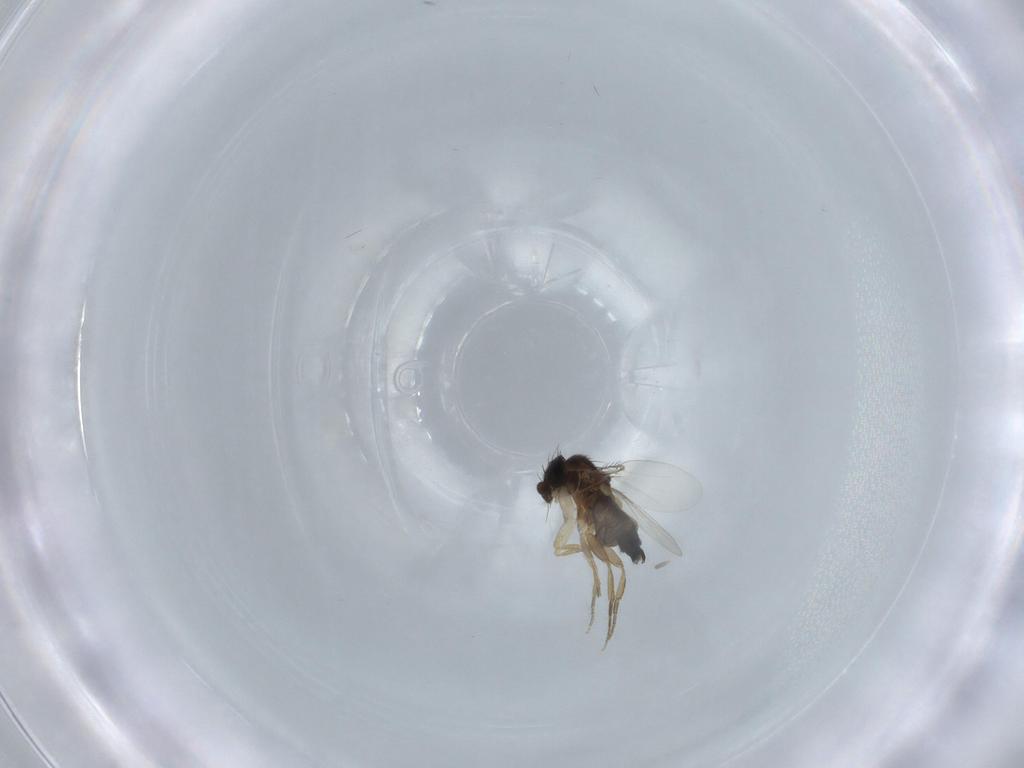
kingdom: Animalia
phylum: Arthropoda
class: Insecta
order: Diptera
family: Phoridae
